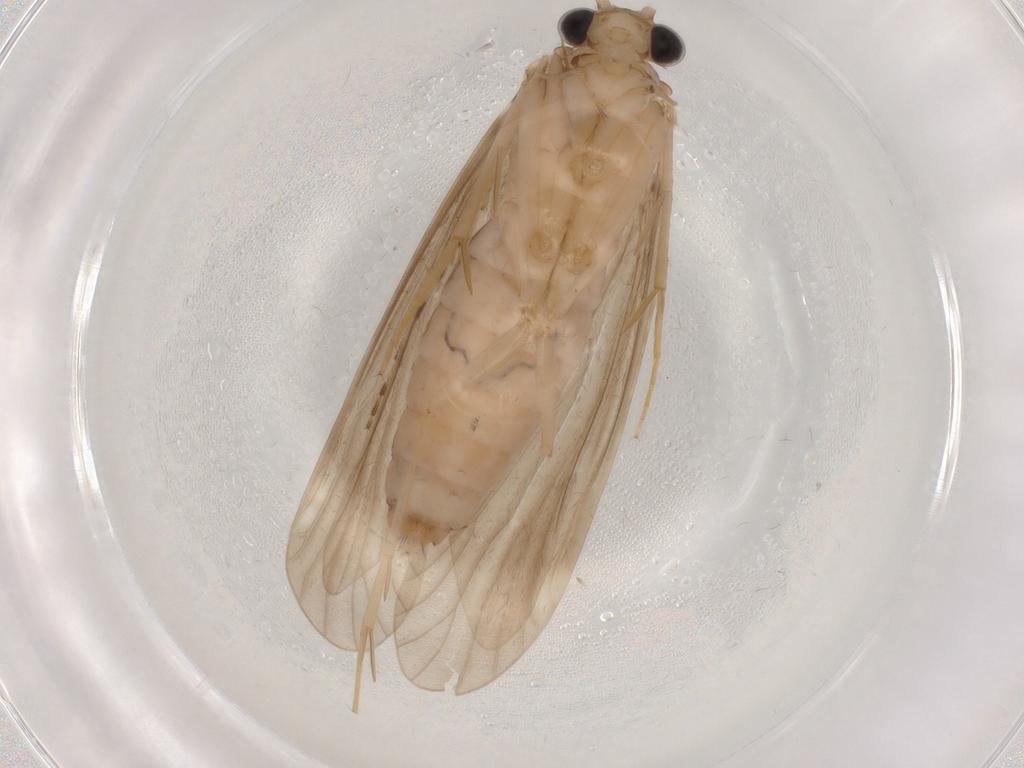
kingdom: Animalia
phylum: Arthropoda
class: Insecta
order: Trichoptera
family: Ecnomidae
